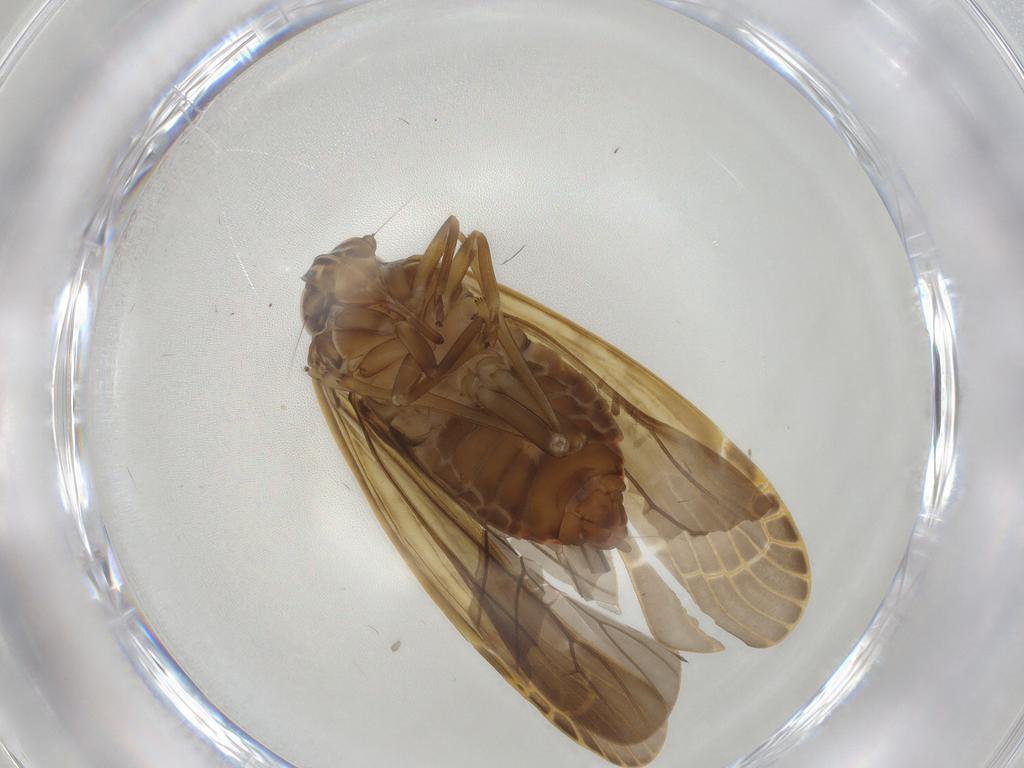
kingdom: Animalia
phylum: Arthropoda
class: Insecta
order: Hemiptera
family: Achilidae
